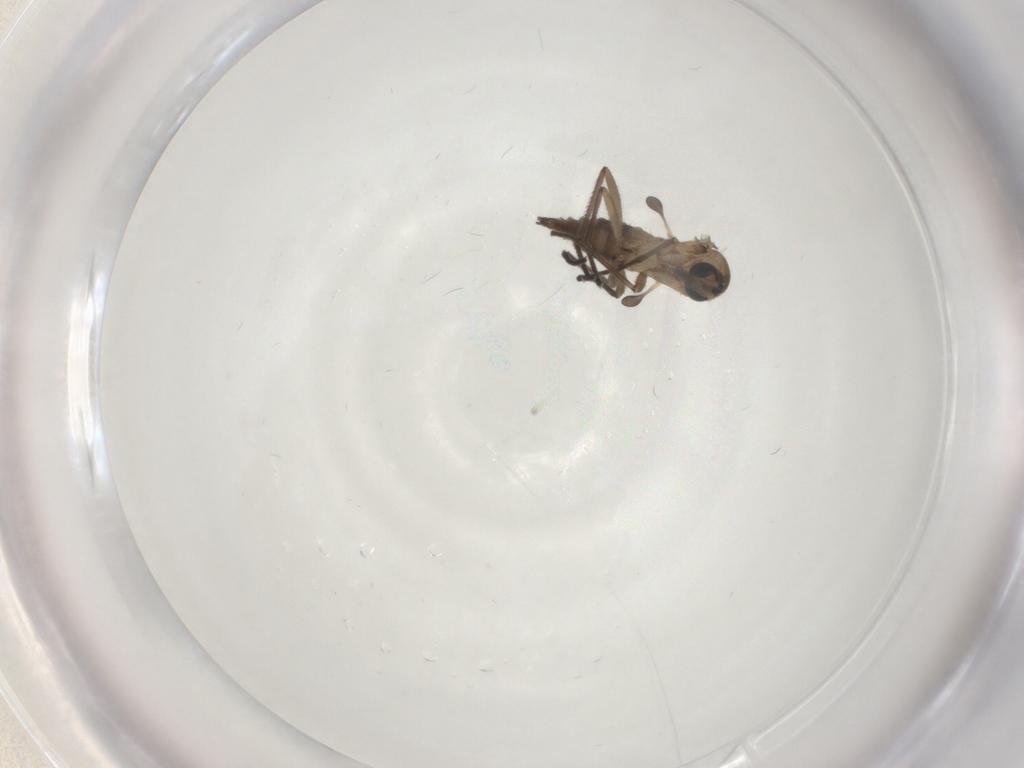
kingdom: Animalia
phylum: Arthropoda
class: Insecta
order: Diptera
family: Sciaridae
